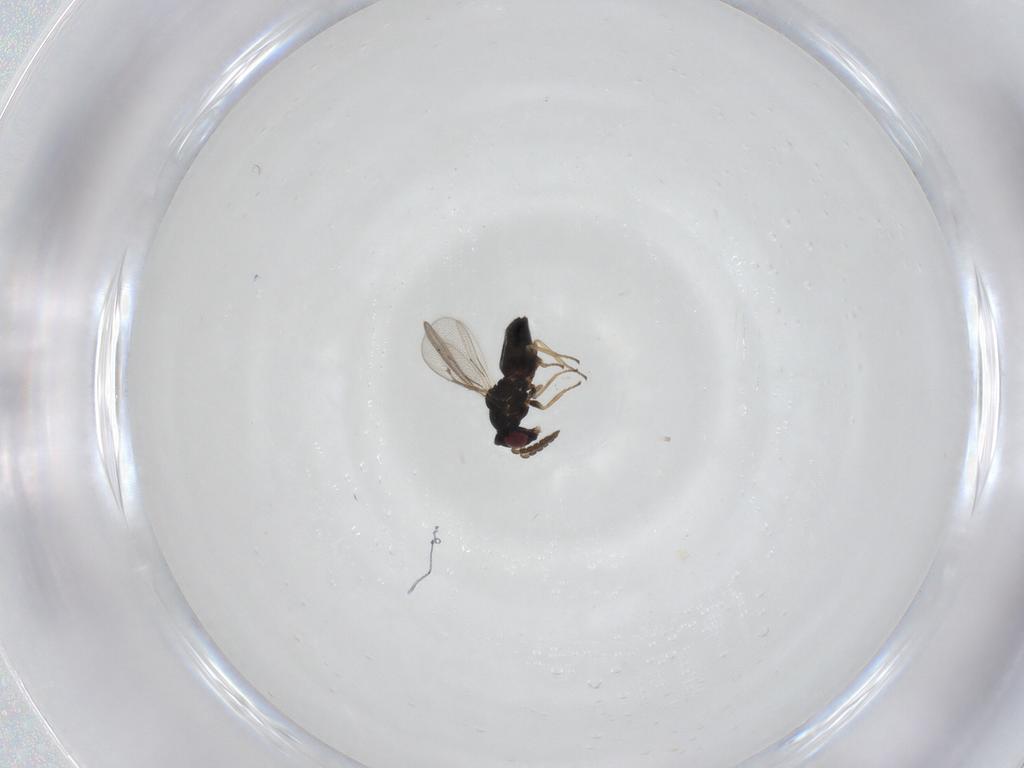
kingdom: Animalia
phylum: Arthropoda
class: Insecta
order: Hymenoptera
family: Eulophidae
